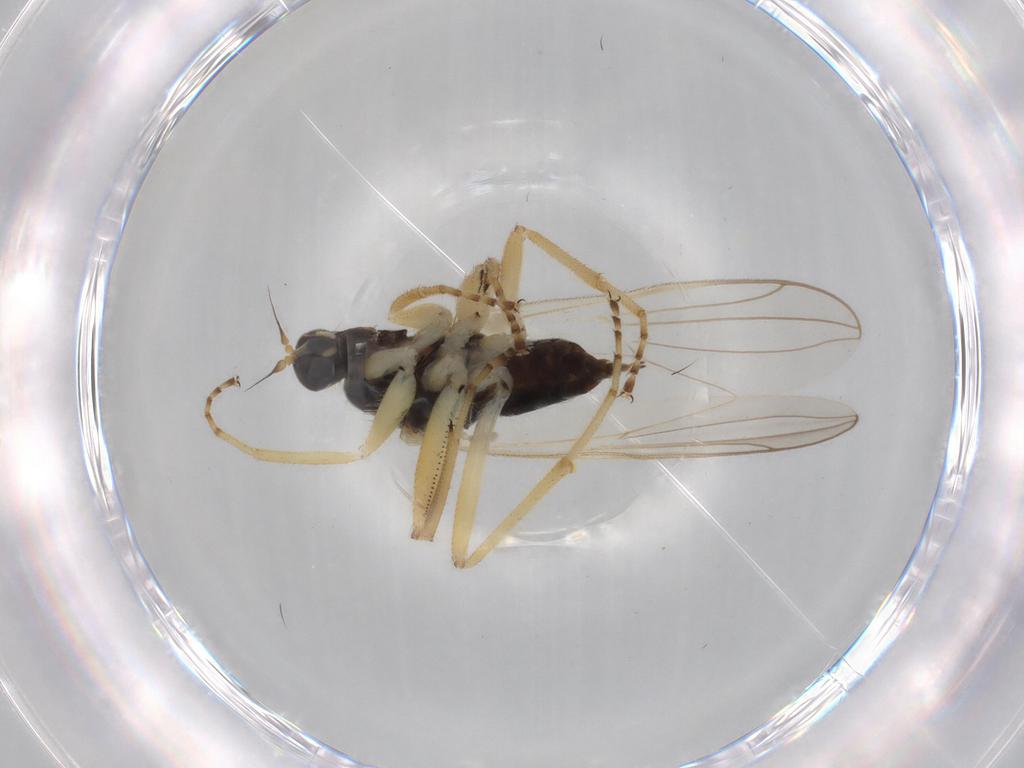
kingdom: Animalia
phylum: Arthropoda
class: Insecta
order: Diptera
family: Hybotidae
